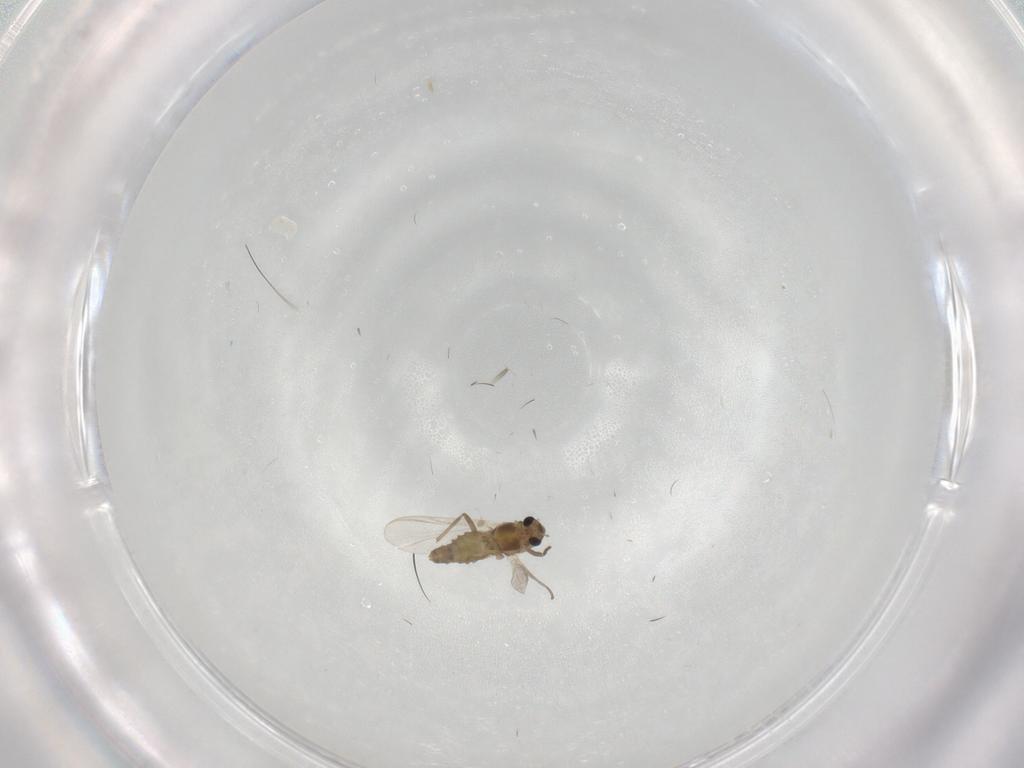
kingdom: Animalia
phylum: Arthropoda
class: Insecta
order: Diptera
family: Chironomidae
